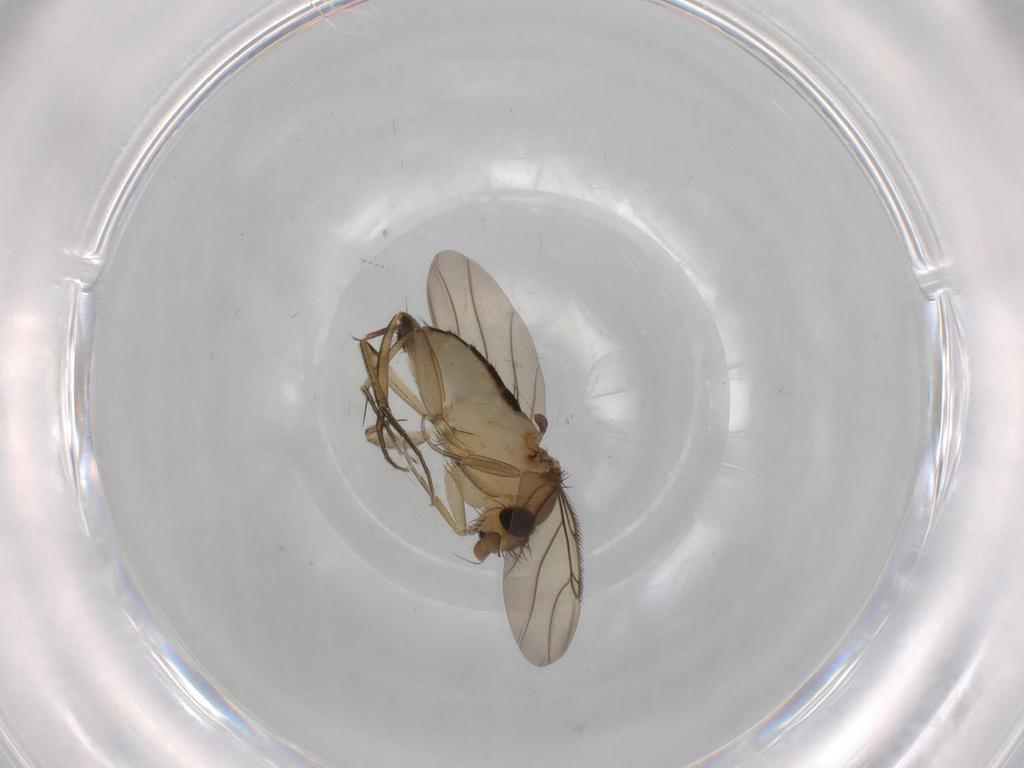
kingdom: Animalia
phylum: Arthropoda
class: Insecta
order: Diptera
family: Phoridae
